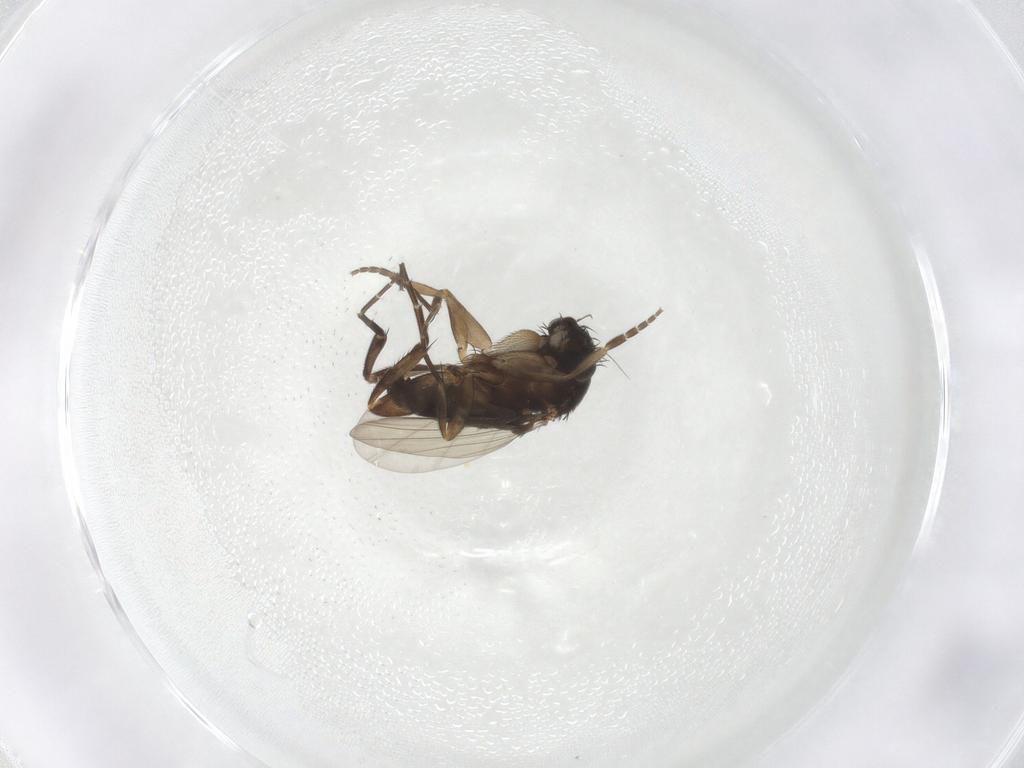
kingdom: Animalia
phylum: Arthropoda
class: Insecta
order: Diptera
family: Phoridae
